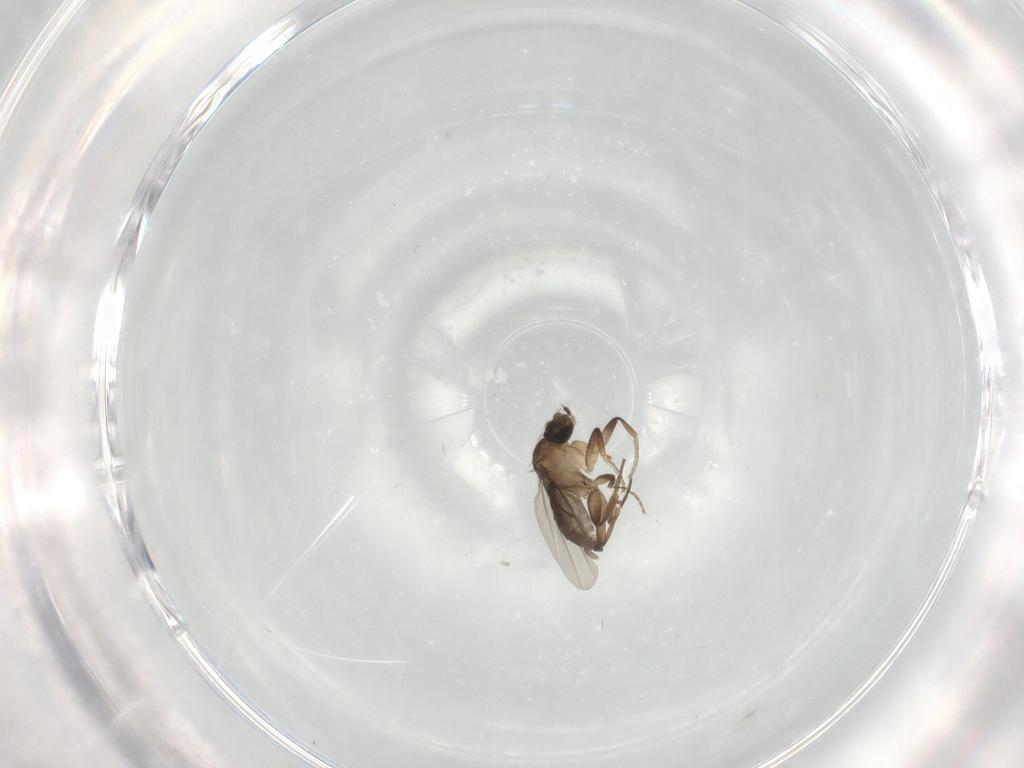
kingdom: Animalia
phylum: Arthropoda
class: Insecta
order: Diptera
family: Phoridae
